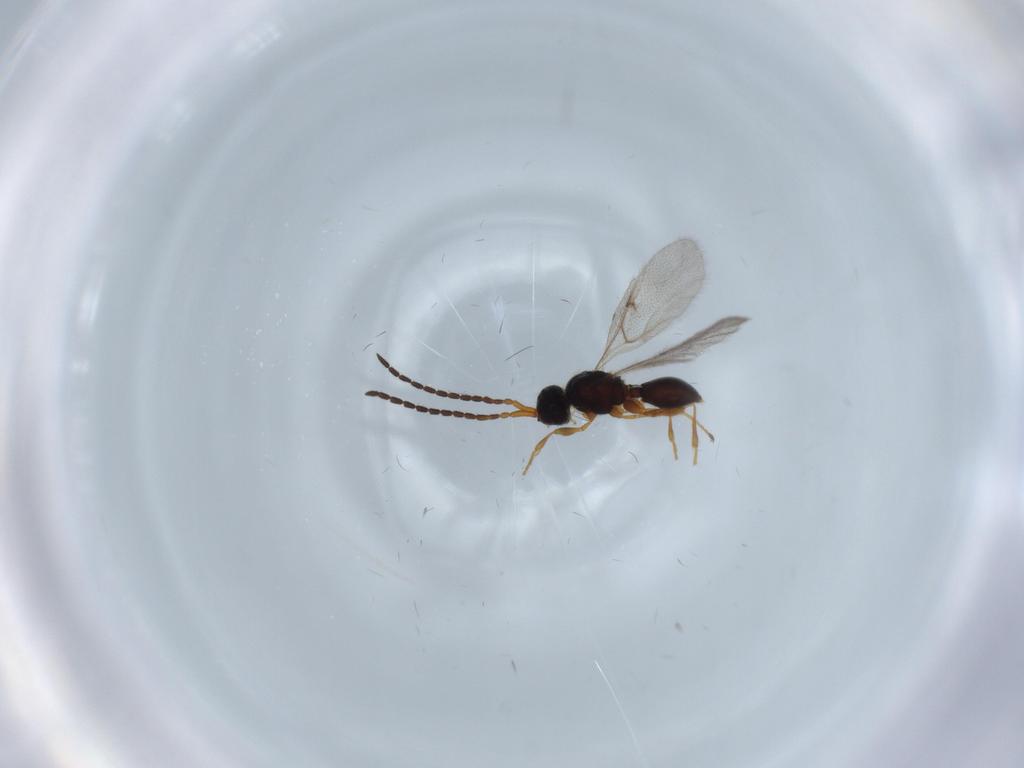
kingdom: Animalia
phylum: Arthropoda
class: Insecta
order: Hymenoptera
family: Diapriidae
